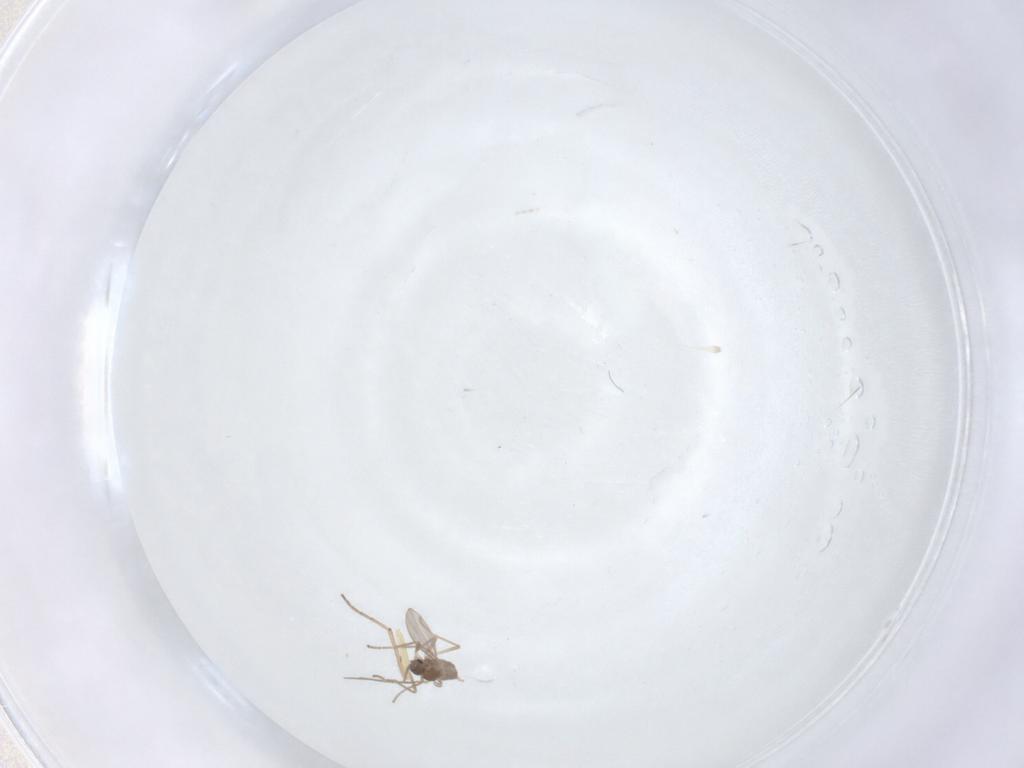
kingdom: Animalia
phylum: Arthropoda
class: Insecta
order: Diptera
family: Cecidomyiidae
